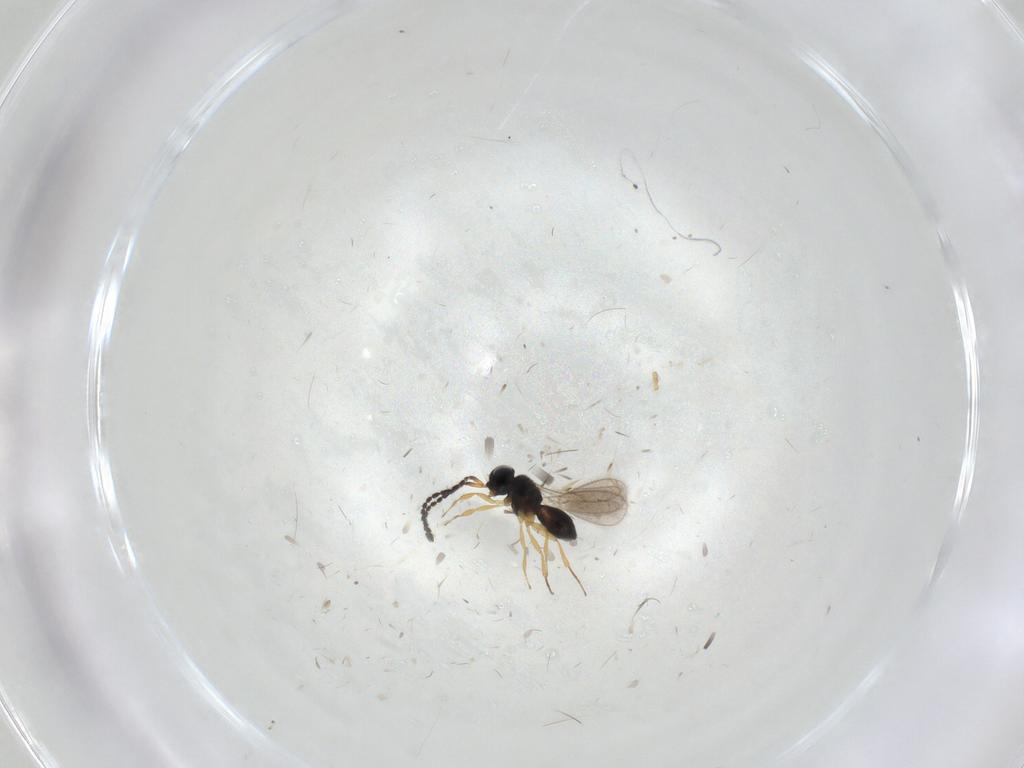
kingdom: Animalia
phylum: Arthropoda
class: Insecta
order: Hymenoptera
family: Scelionidae
